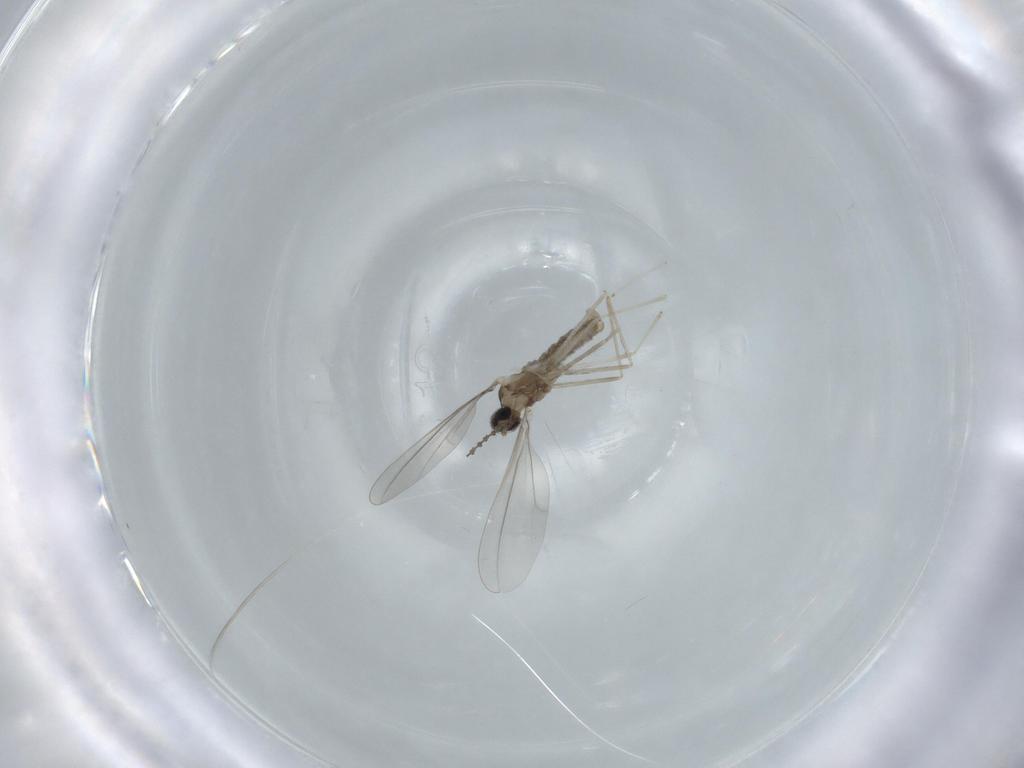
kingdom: Animalia
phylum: Arthropoda
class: Insecta
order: Diptera
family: Cecidomyiidae
